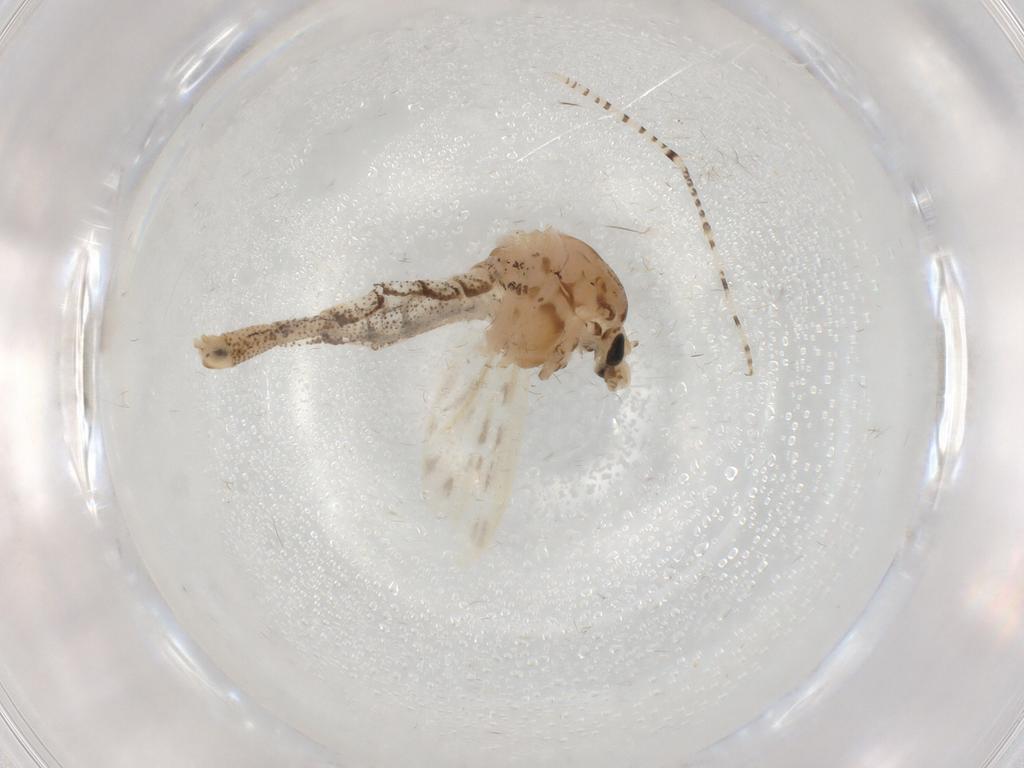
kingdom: Animalia
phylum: Arthropoda
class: Insecta
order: Diptera
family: Chaoboridae
